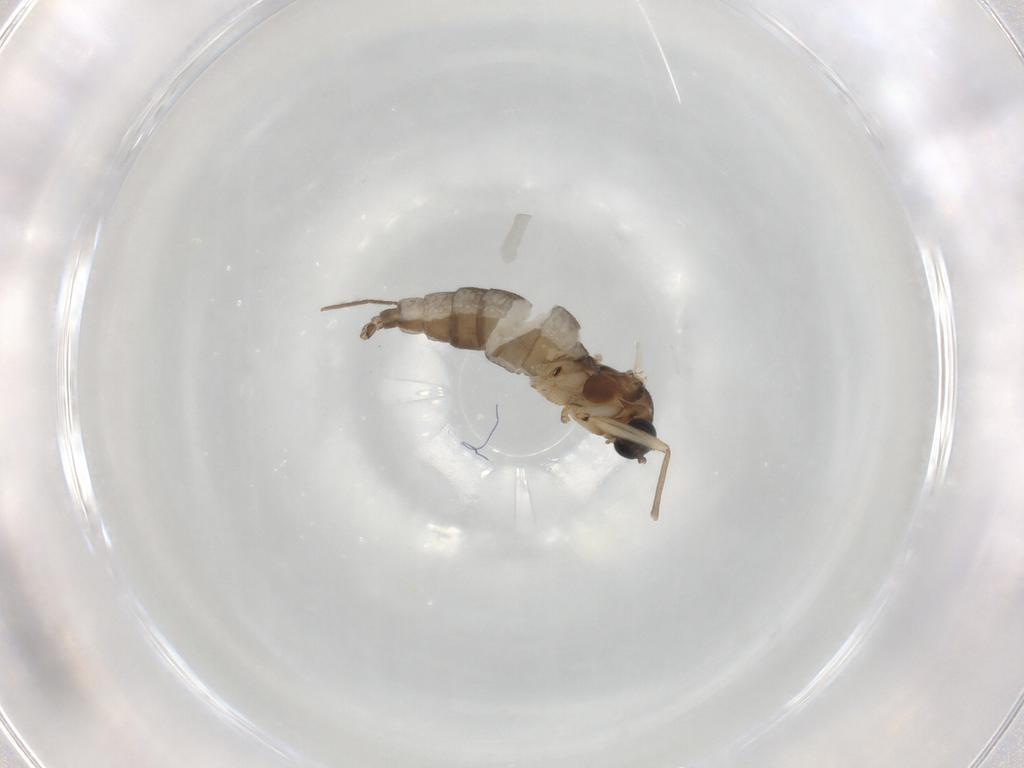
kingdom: Animalia
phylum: Arthropoda
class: Insecta
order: Diptera
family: Sciaridae
